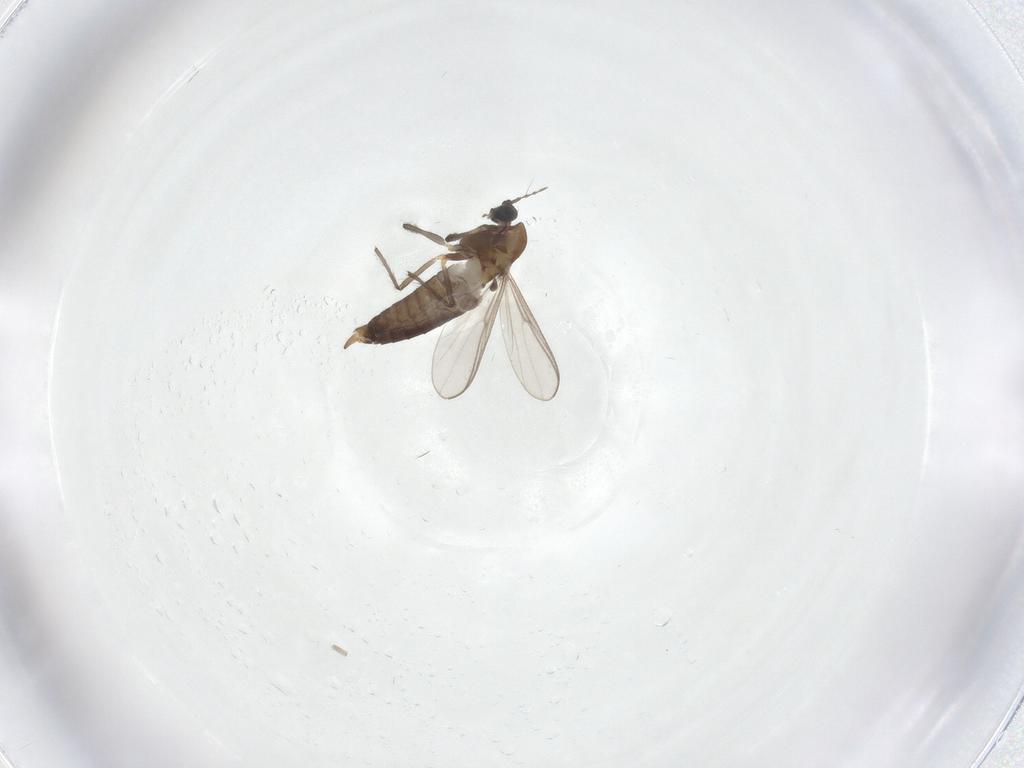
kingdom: Animalia
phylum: Arthropoda
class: Insecta
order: Diptera
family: Chironomidae
